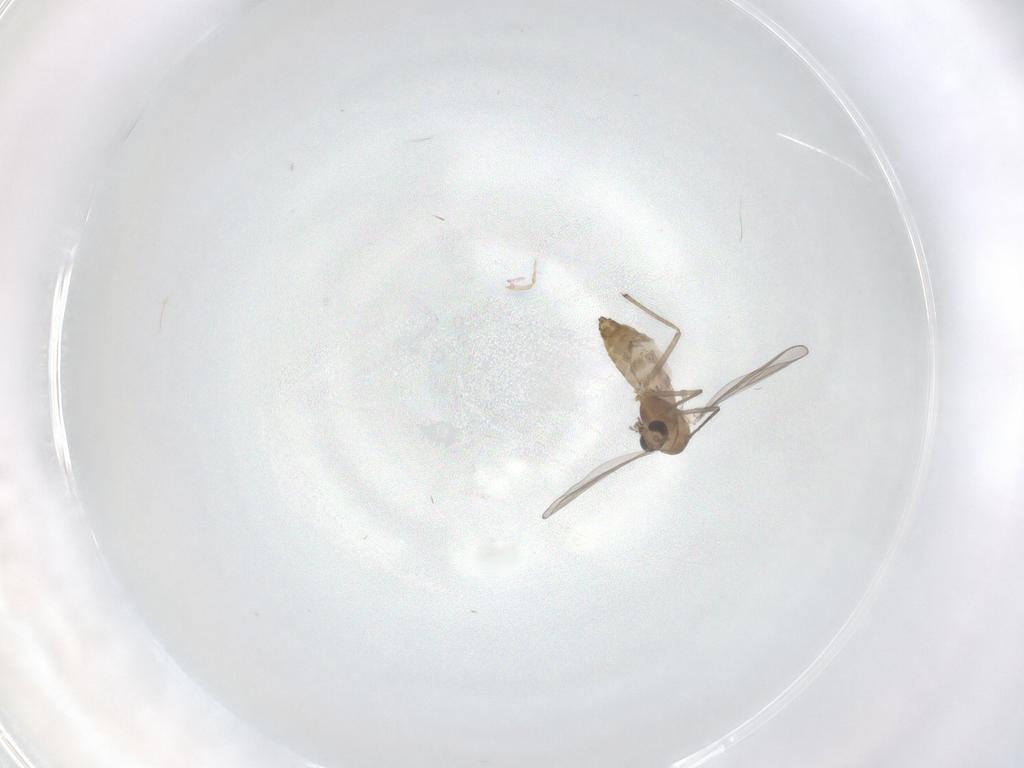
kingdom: Animalia
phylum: Arthropoda
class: Insecta
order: Diptera
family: Chironomidae
